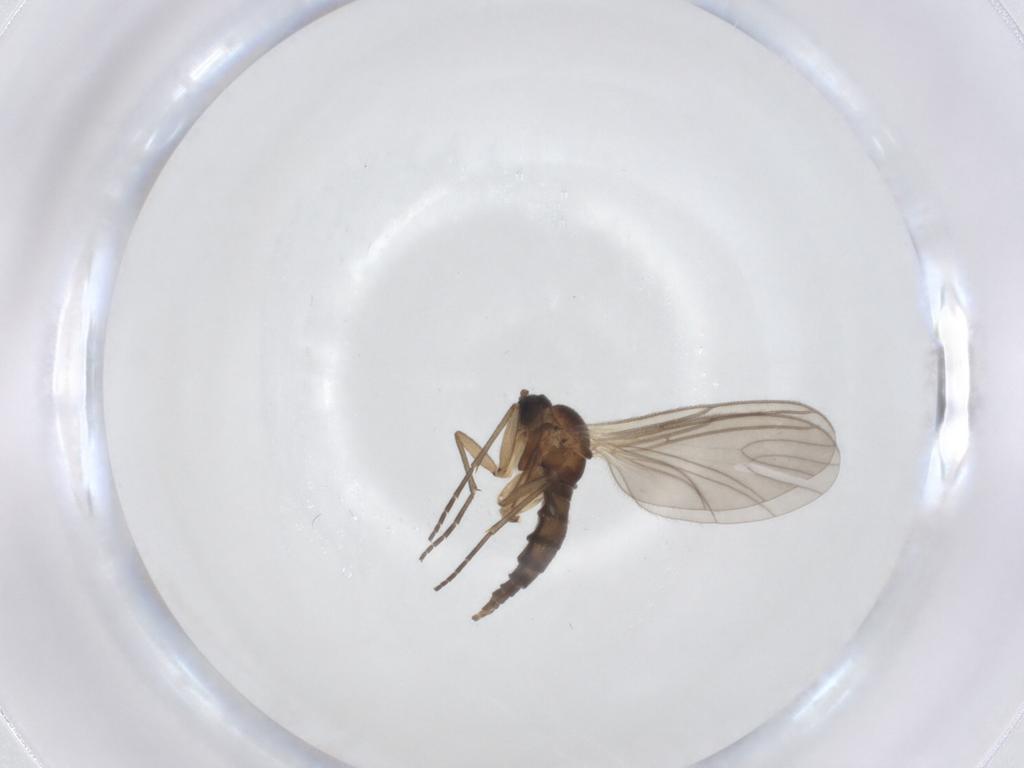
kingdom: Animalia
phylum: Arthropoda
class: Insecta
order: Diptera
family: Sciaridae
